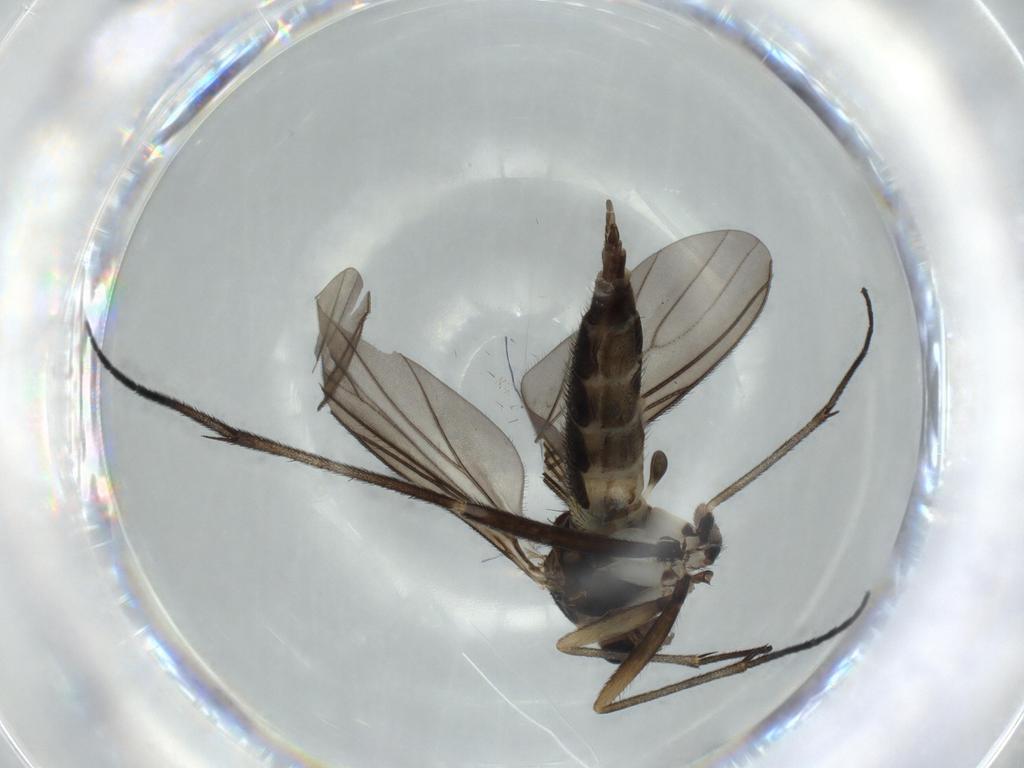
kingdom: Animalia
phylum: Arthropoda
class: Insecta
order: Diptera
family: Sciaridae
